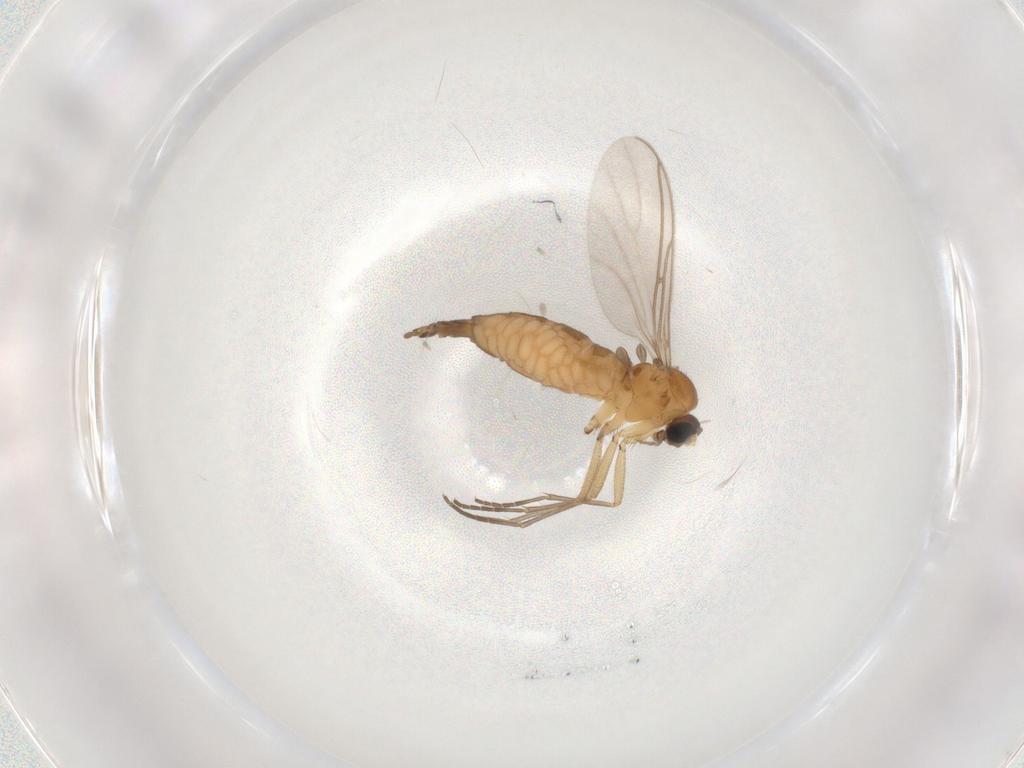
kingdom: Animalia
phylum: Arthropoda
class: Insecta
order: Diptera
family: Sciaridae
